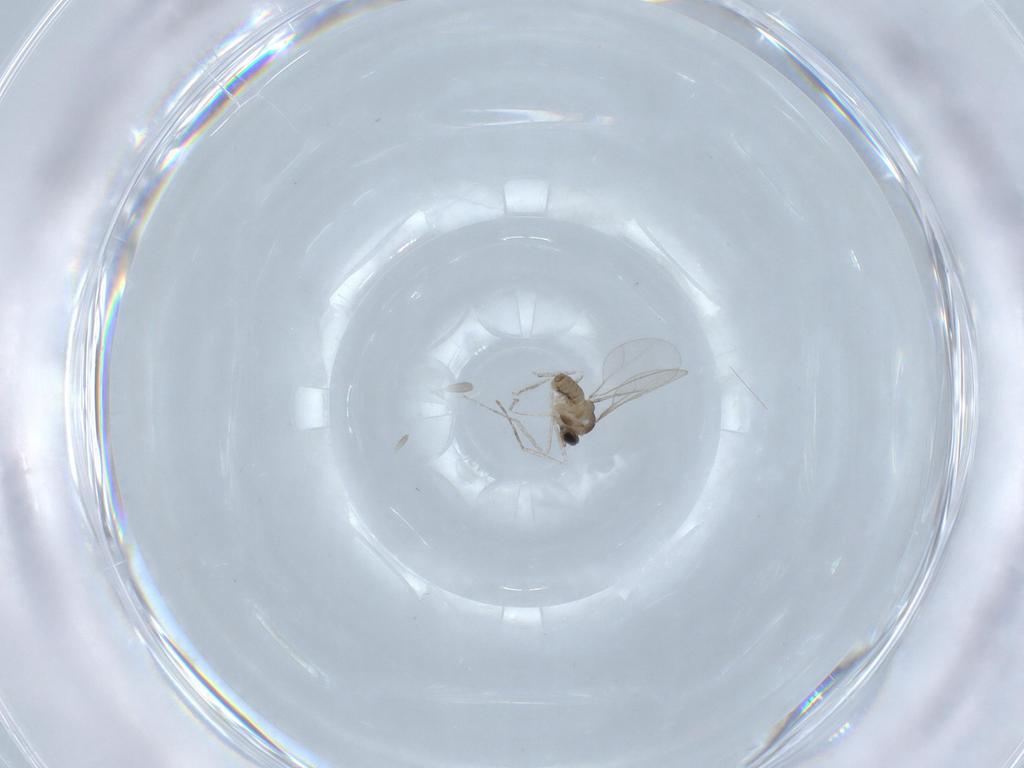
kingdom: Animalia
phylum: Arthropoda
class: Insecta
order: Diptera
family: Cecidomyiidae
